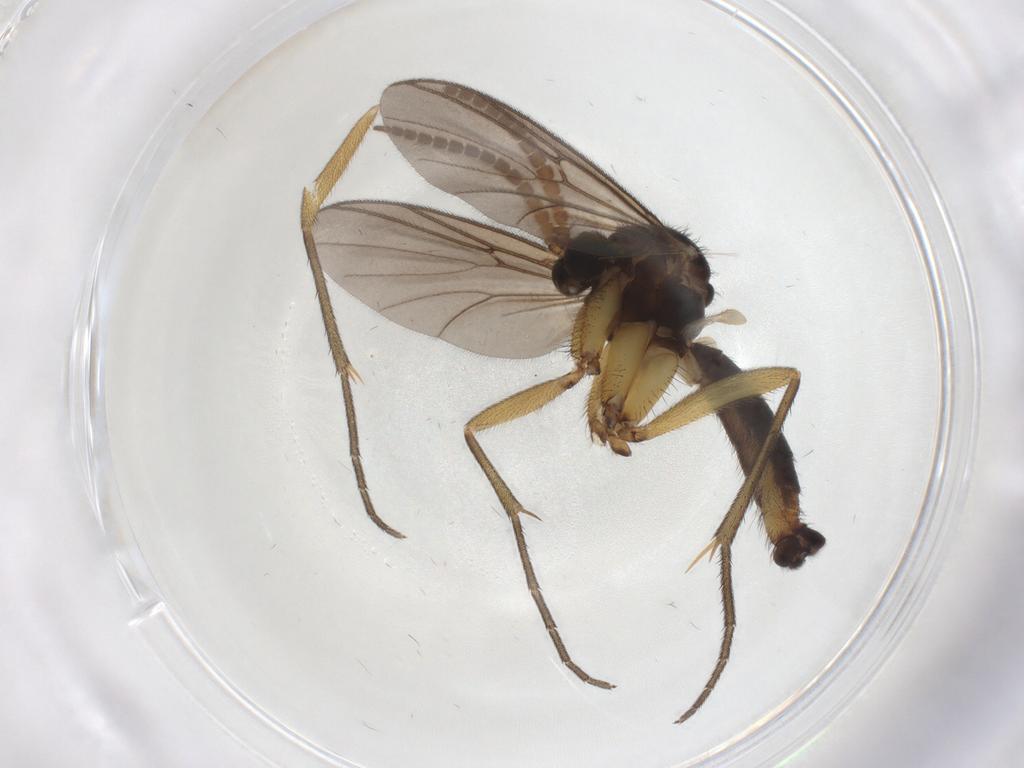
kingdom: Animalia
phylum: Arthropoda
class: Insecta
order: Diptera
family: Mycetophilidae
